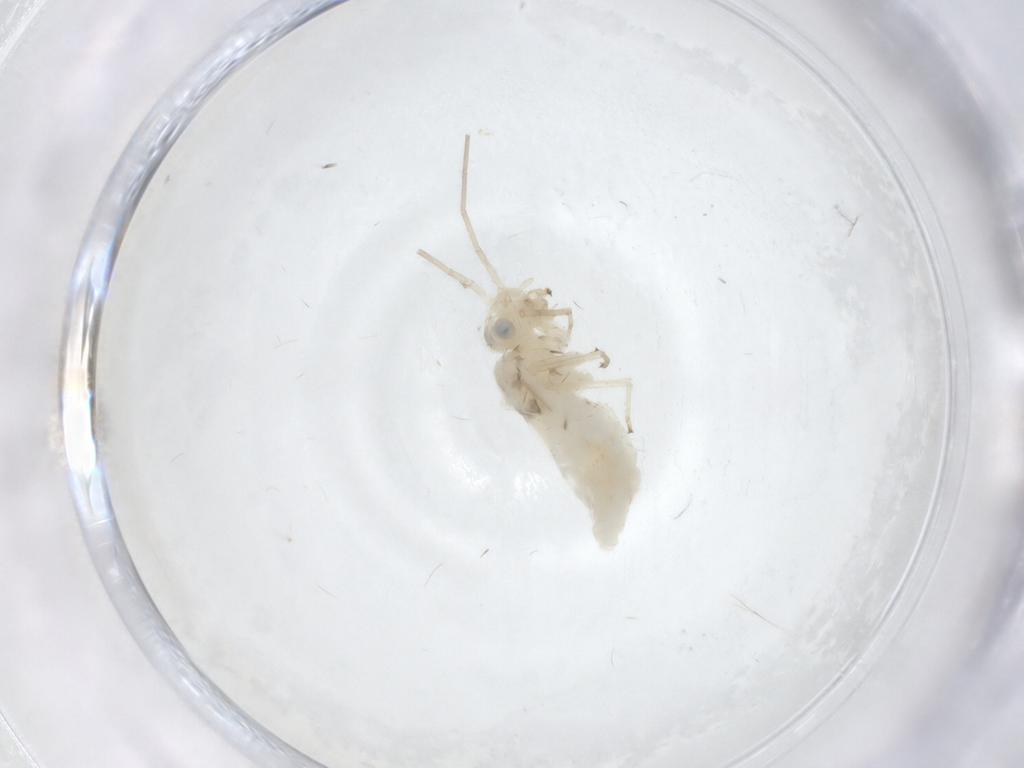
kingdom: Animalia
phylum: Arthropoda
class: Insecta
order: Psocodea
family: Caeciliusidae
